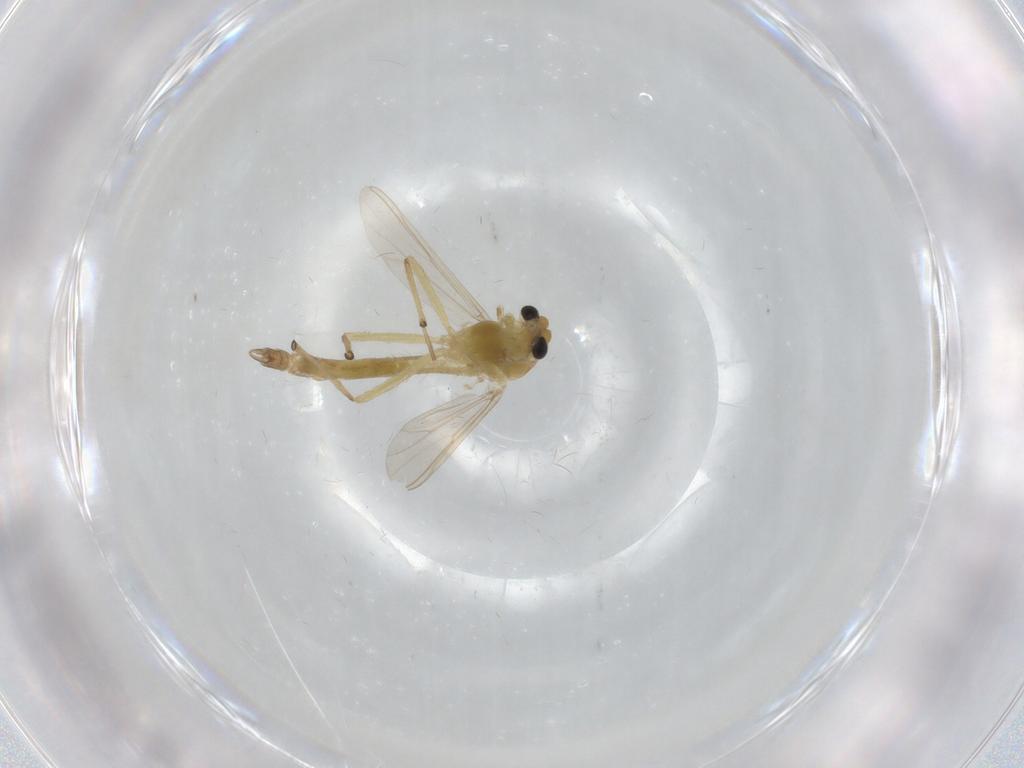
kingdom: Animalia
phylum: Arthropoda
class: Insecta
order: Diptera
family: Chironomidae
